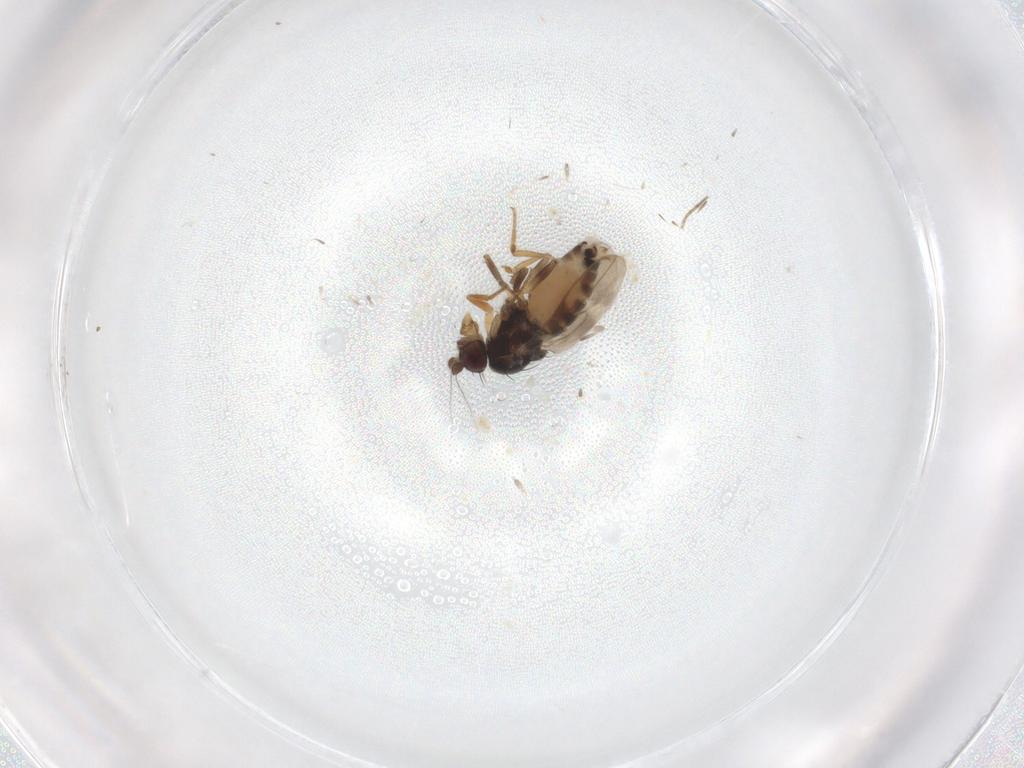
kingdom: Animalia
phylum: Arthropoda
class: Insecta
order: Diptera
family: Sphaeroceridae
